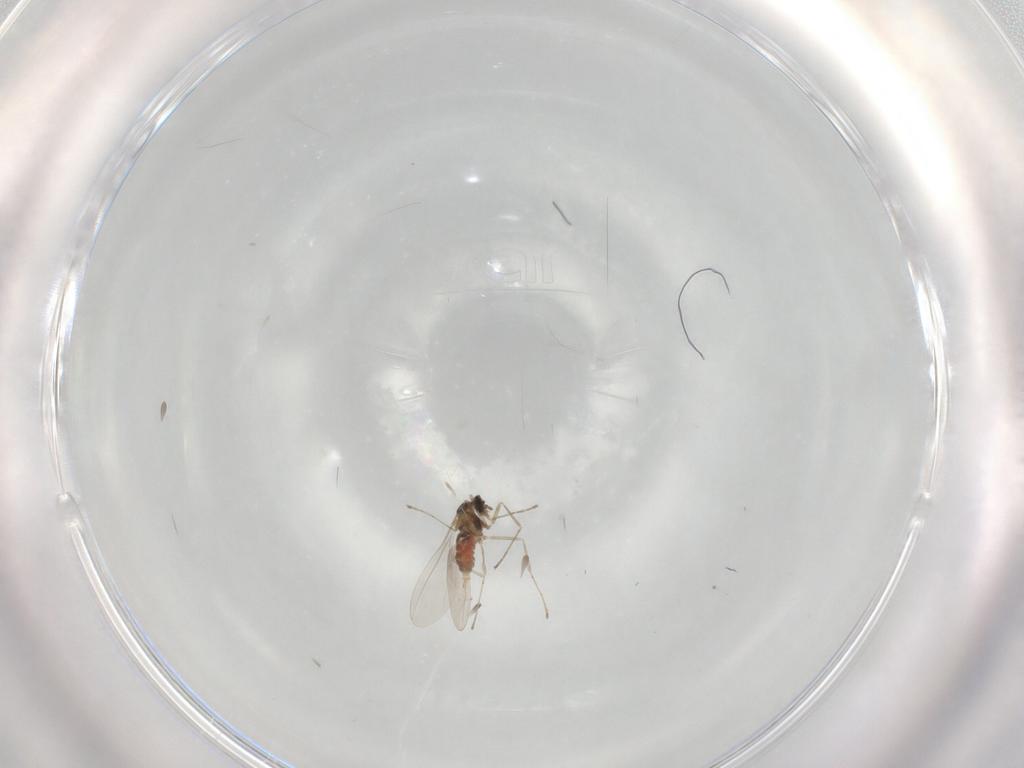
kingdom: Animalia
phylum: Arthropoda
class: Insecta
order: Diptera
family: Cecidomyiidae
